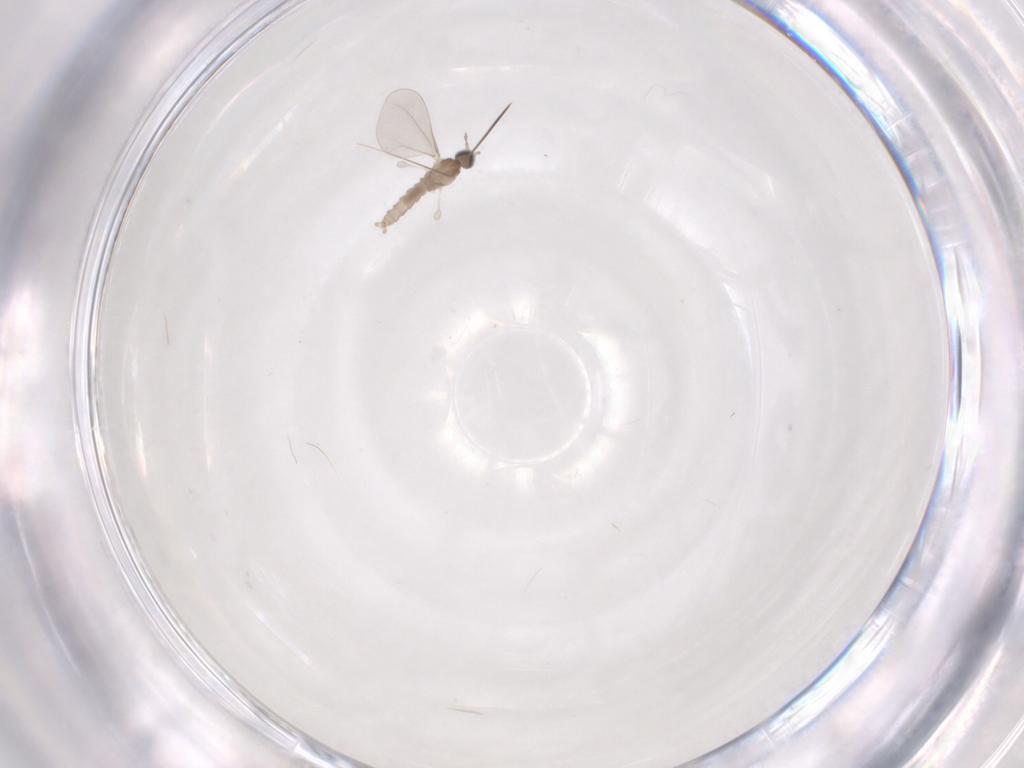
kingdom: Animalia
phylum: Arthropoda
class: Insecta
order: Diptera
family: Cecidomyiidae
